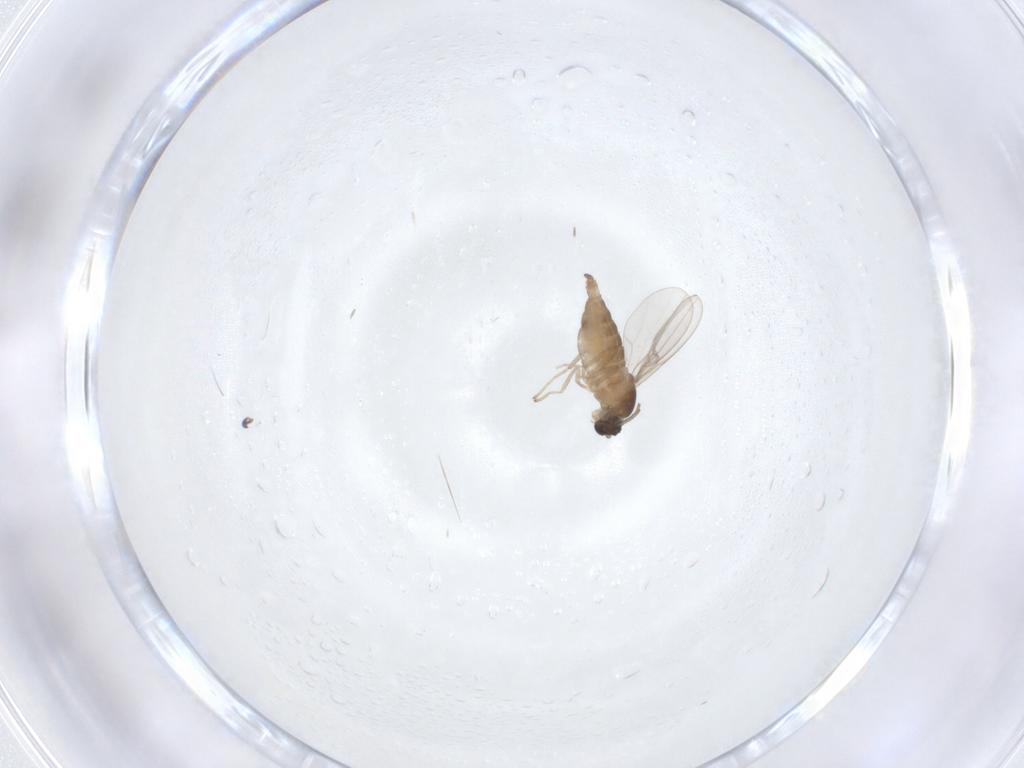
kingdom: Animalia
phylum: Arthropoda
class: Insecta
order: Diptera
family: Cecidomyiidae
